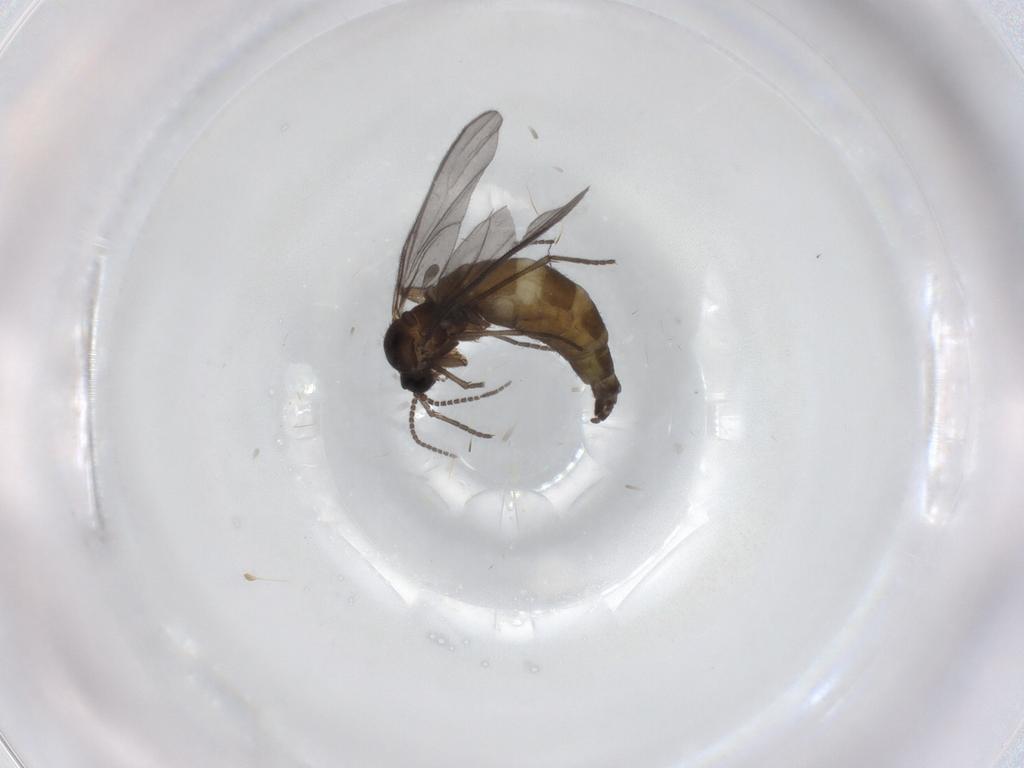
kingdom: Animalia
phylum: Arthropoda
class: Insecta
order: Diptera
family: Sciaridae
